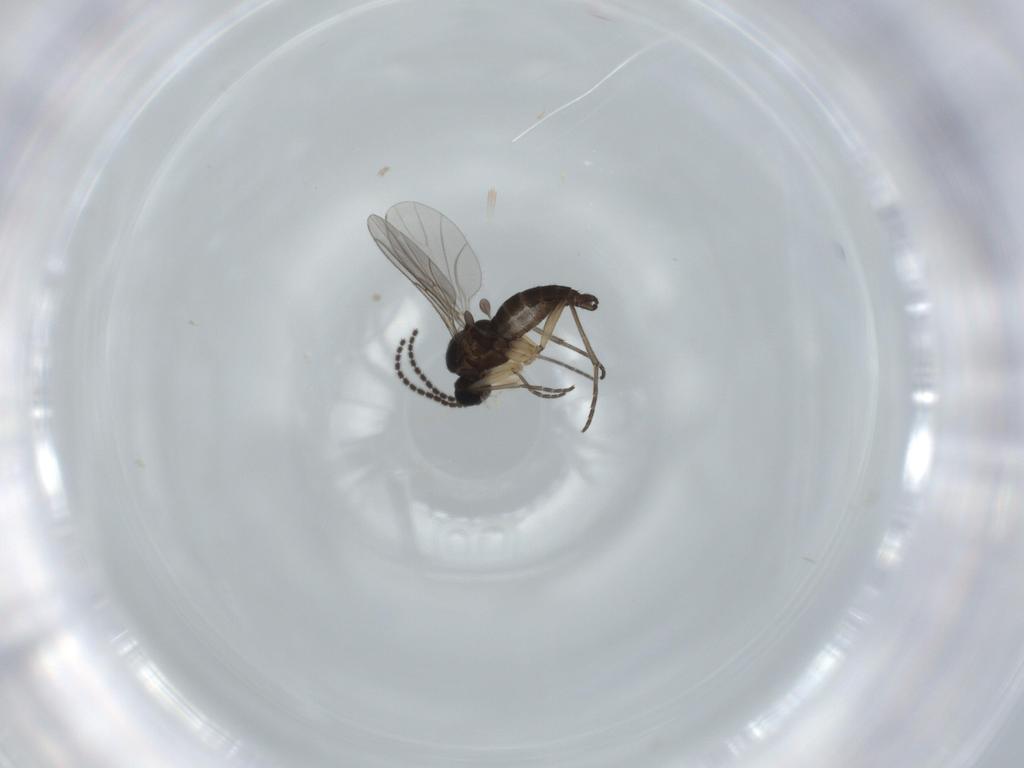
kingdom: Animalia
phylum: Arthropoda
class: Insecta
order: Diptera
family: Sciaridae
